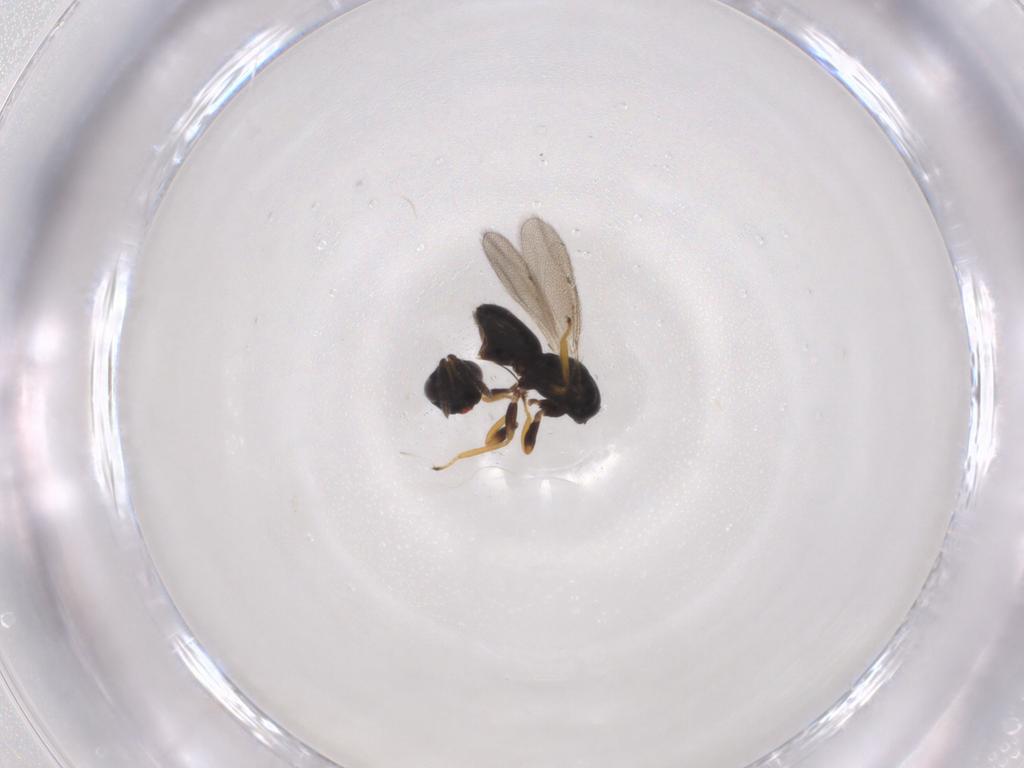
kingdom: Animalia
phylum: Arthropoda
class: Insecta
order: Hymenoptera
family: Eulophidae
